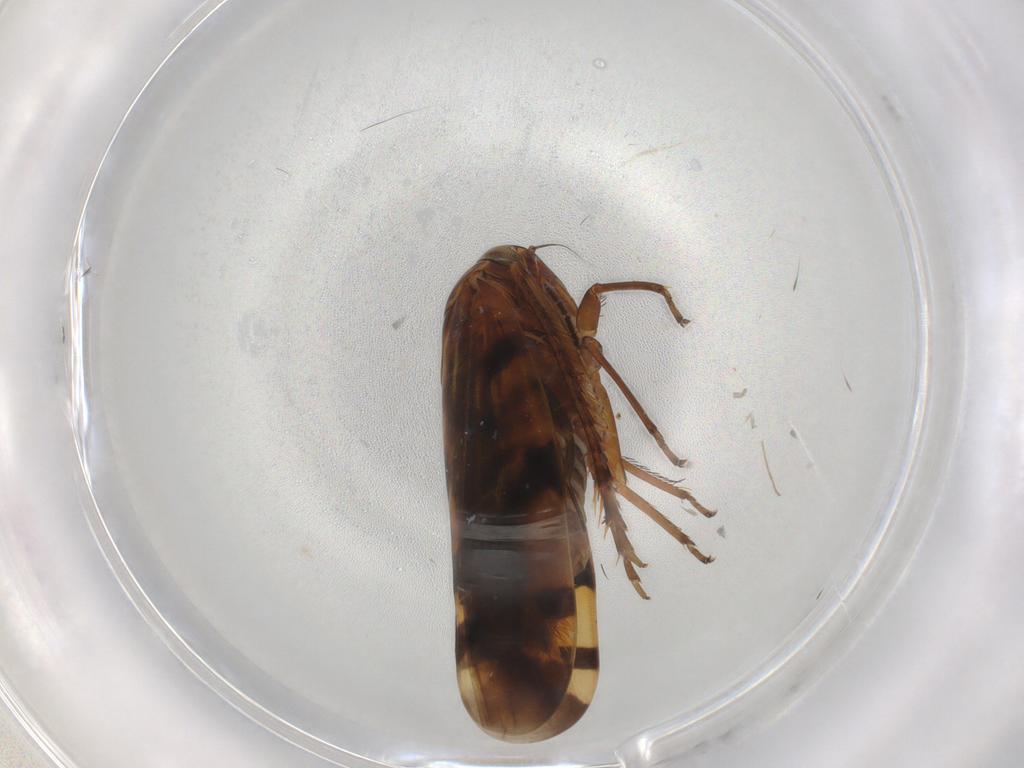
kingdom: Animalia
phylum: Arthropoda
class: Insecta
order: Hemiptera
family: Cicadellidae
